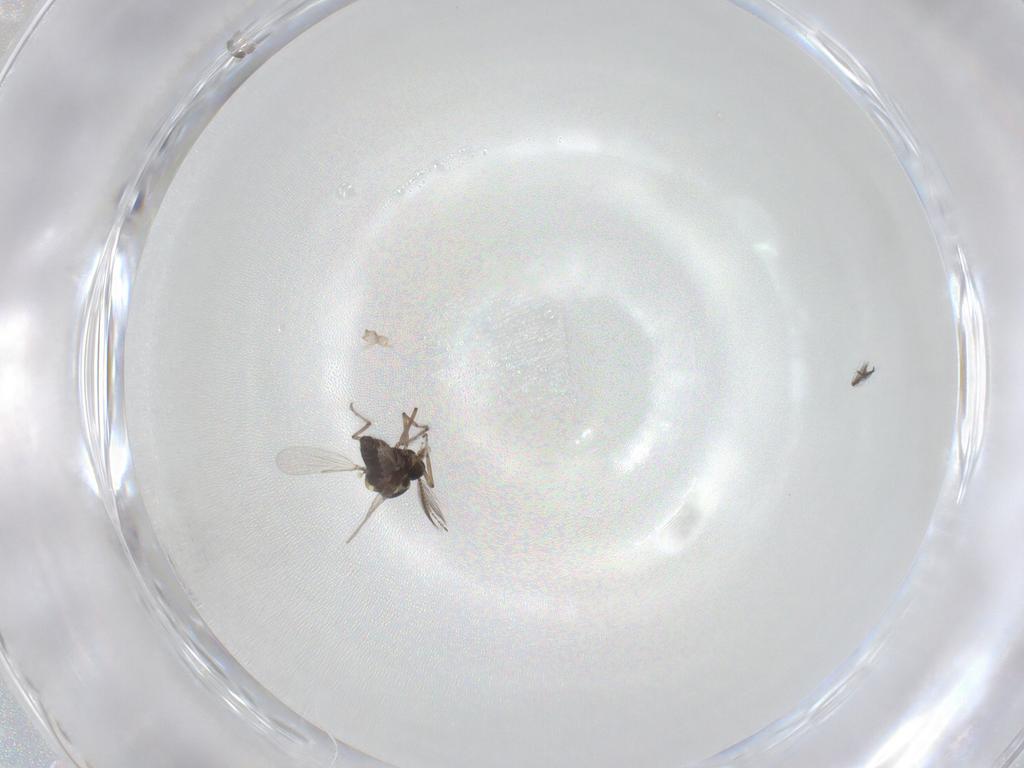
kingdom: Animalia
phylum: Arthropoda
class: Insecta
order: Diptera
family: Ceratopogonidae
